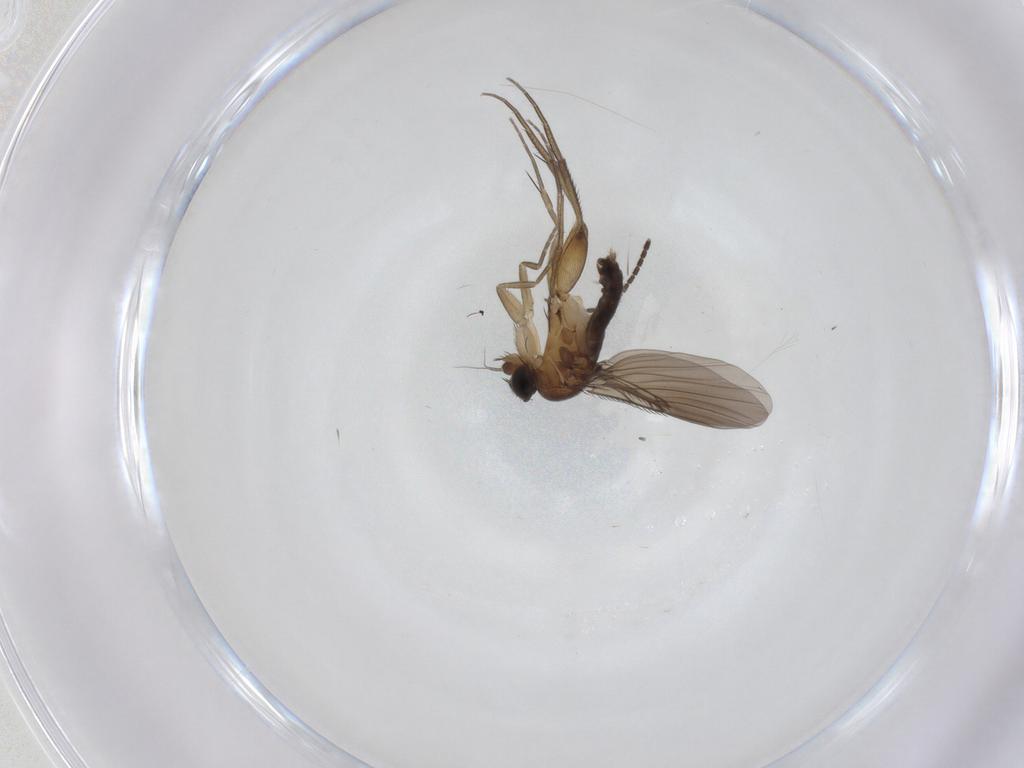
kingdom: Animalia
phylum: Arthropoda
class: Insecta
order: Diptera
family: Phoridae
